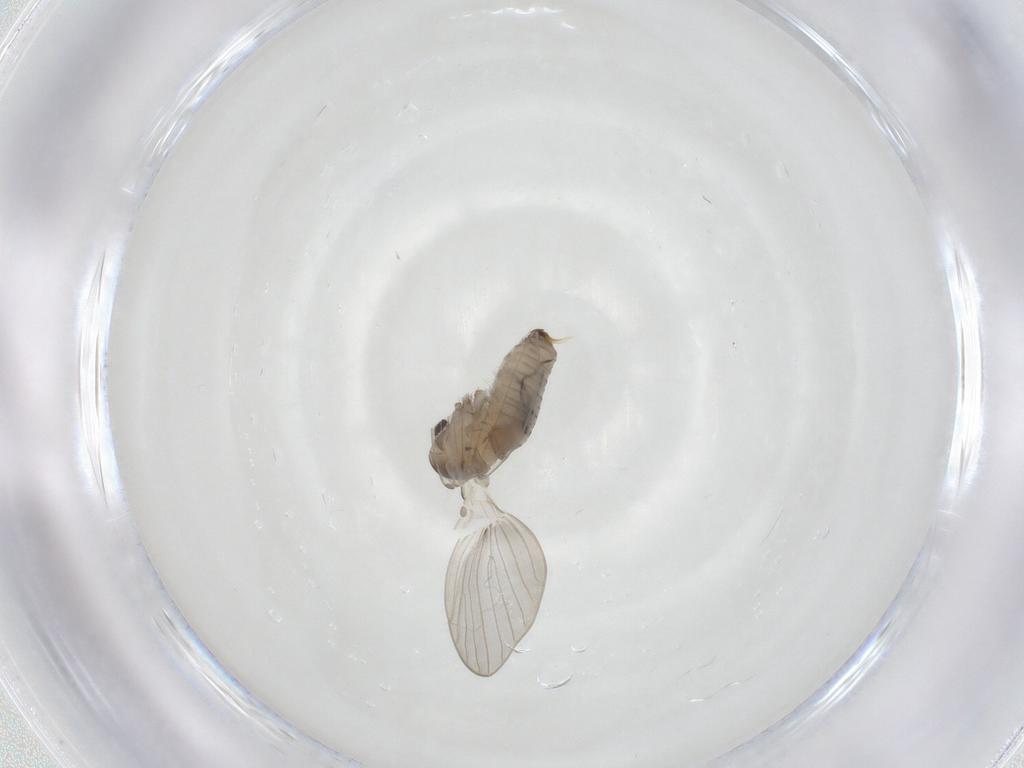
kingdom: Animalia
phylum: Arthropoda
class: Insecta
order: Diptera
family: Psychodidae
